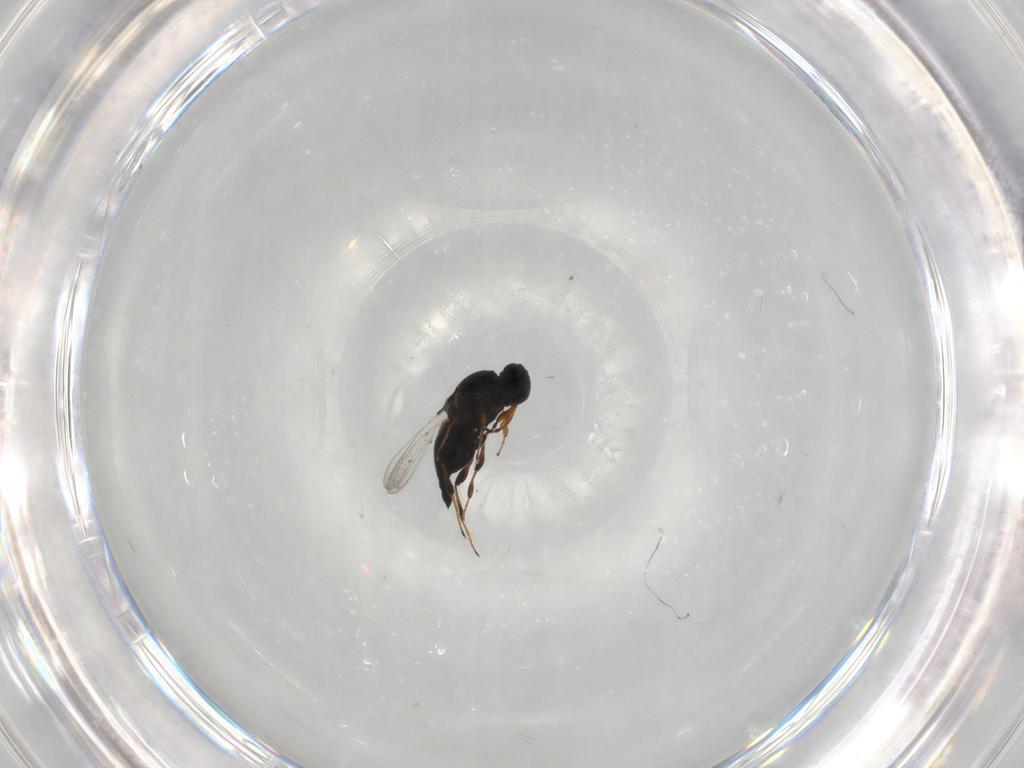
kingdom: Animalia
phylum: Arthropoda
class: Insecta
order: Hymenoptera
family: Platygastridae
